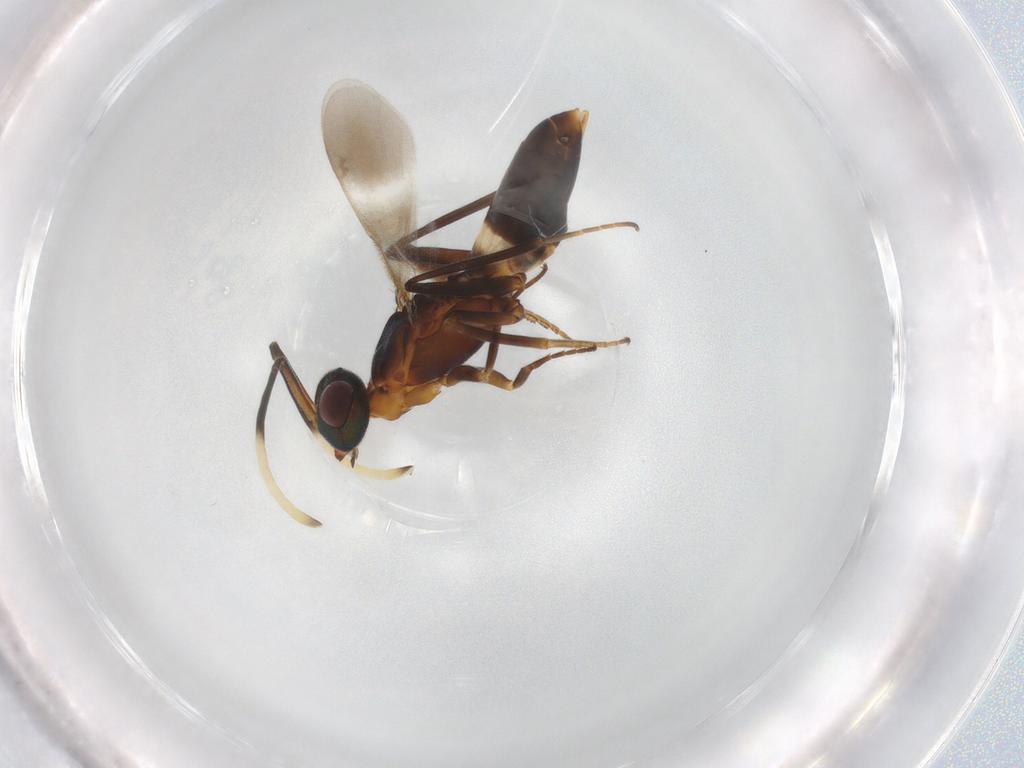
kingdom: Animalia
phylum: Arthropoda
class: Insecta
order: Hymenoptera
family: Eupelmidae
